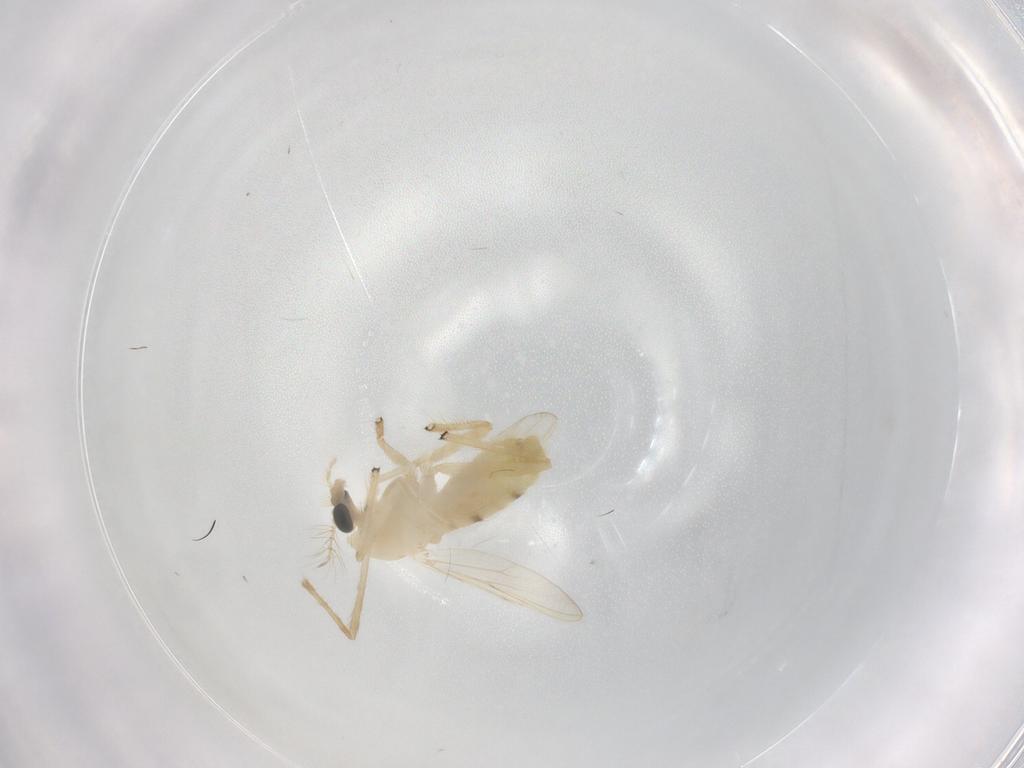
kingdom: Animalia
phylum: Arthropoda
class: Insecta
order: Diptera
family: Chironomidae
